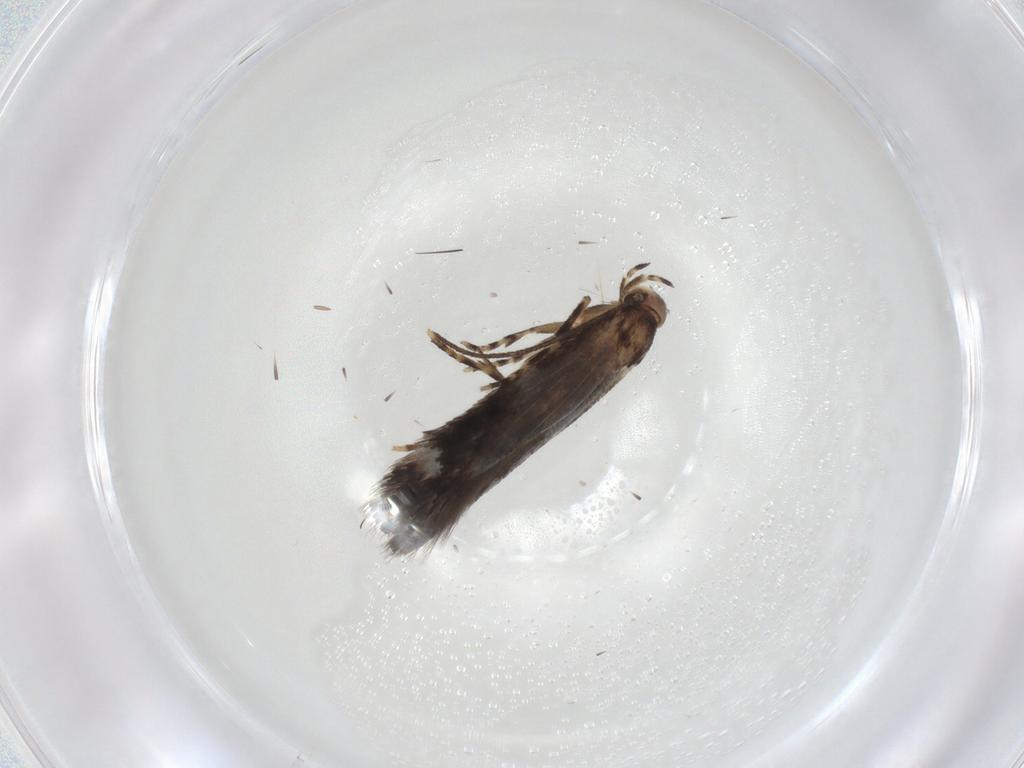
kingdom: Animalia
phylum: Arthropoda
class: Insecta
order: Lepidoptera
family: Elachistidae
